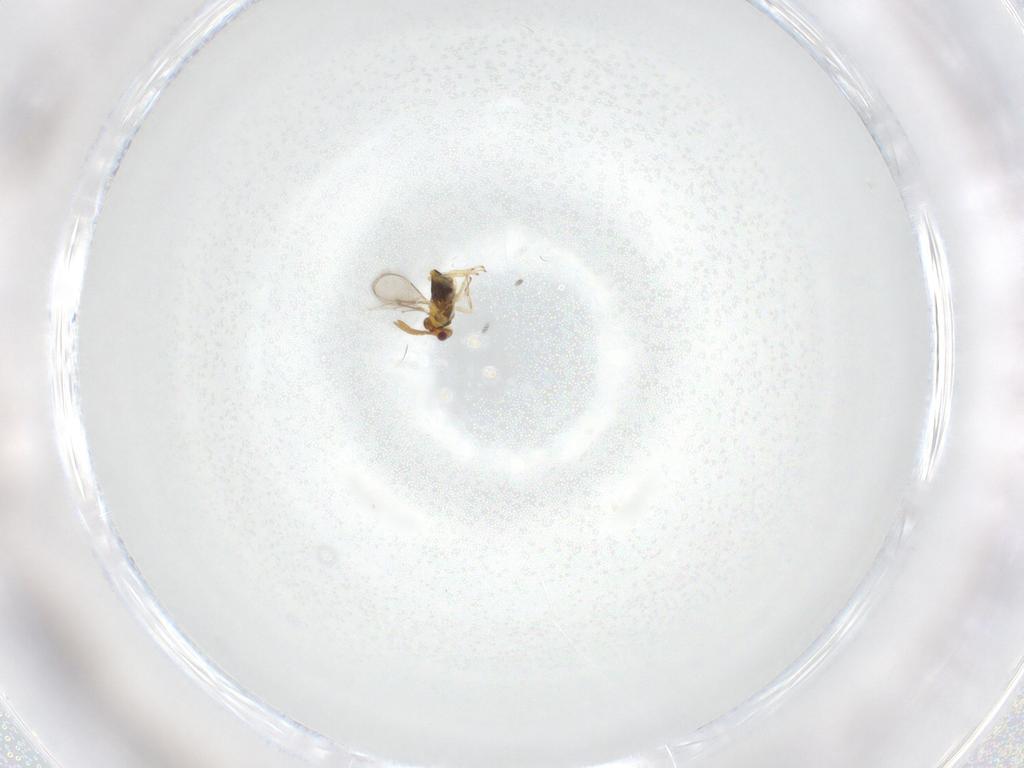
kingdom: Animalia
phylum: Arthropoda
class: Insecta
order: Hymenoptera
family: Aphelinidae
